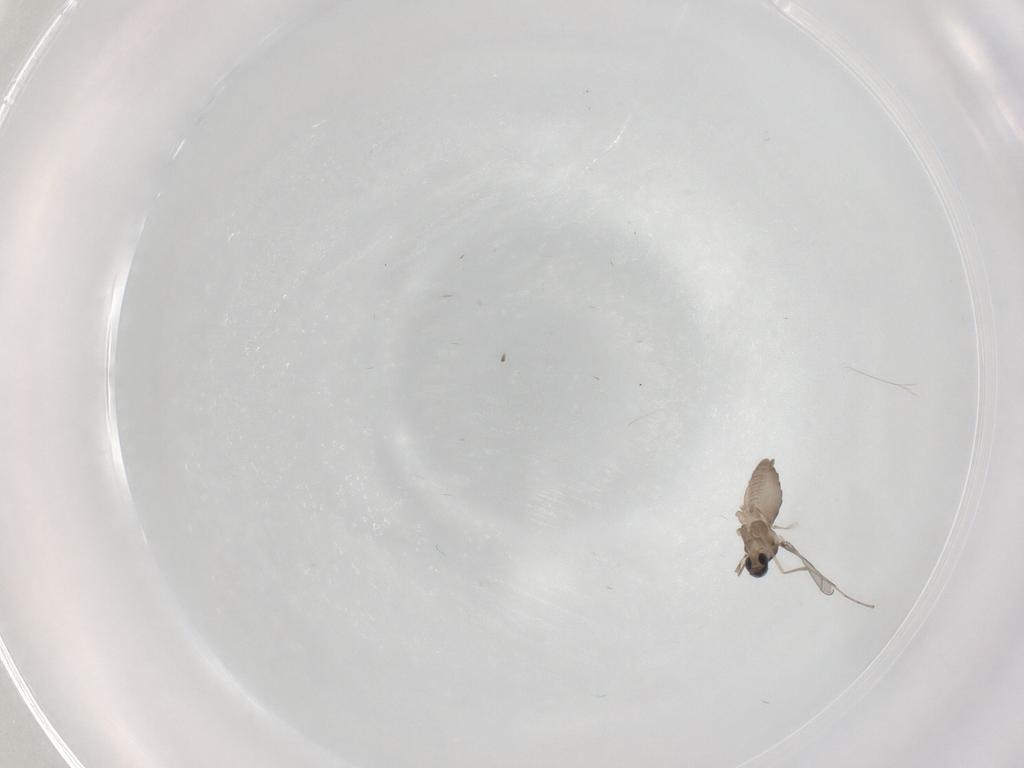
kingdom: Animalia
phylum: Arthropoda
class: Insecta
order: Diptera
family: Cecidomyiidae
